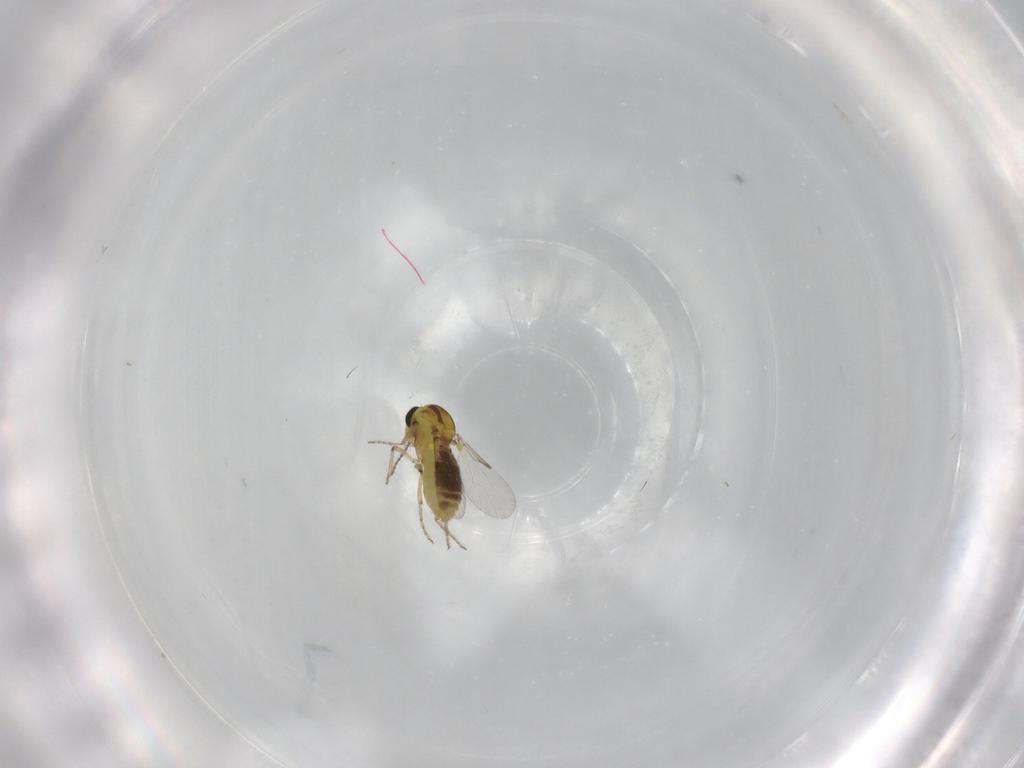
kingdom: Animalia
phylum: Arthropoda
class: Insecta
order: Diptera
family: Ceratopogonidae
